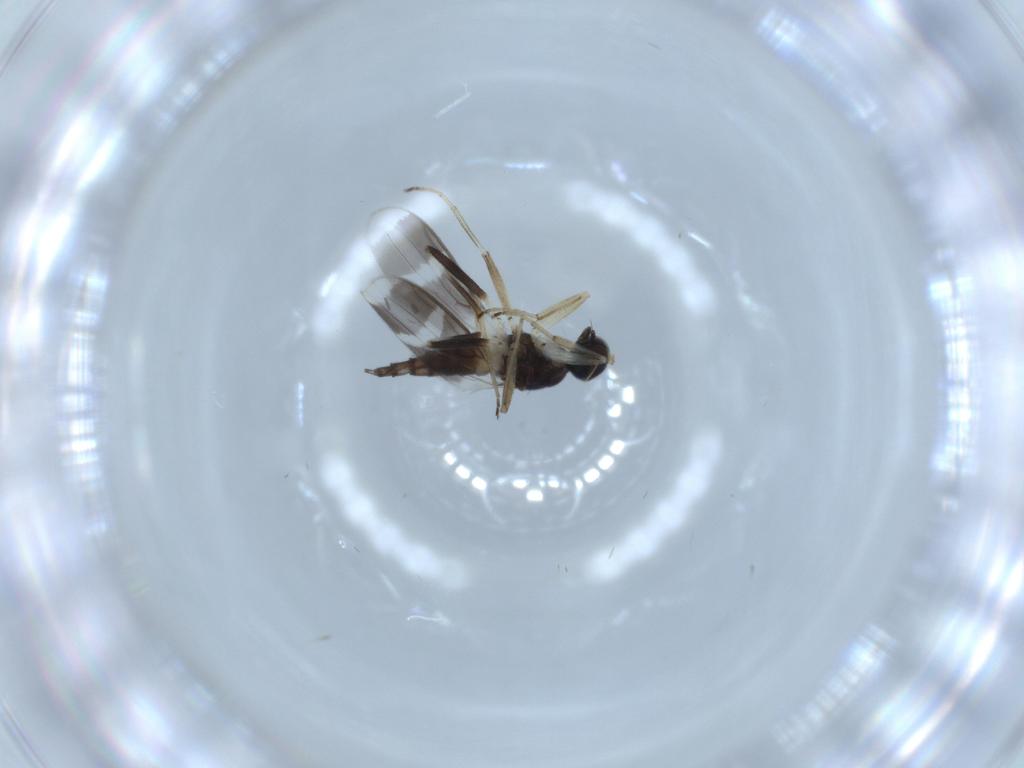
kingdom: Animalia
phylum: Arthropoda
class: Insecta
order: Diptera
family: Hybotidae
